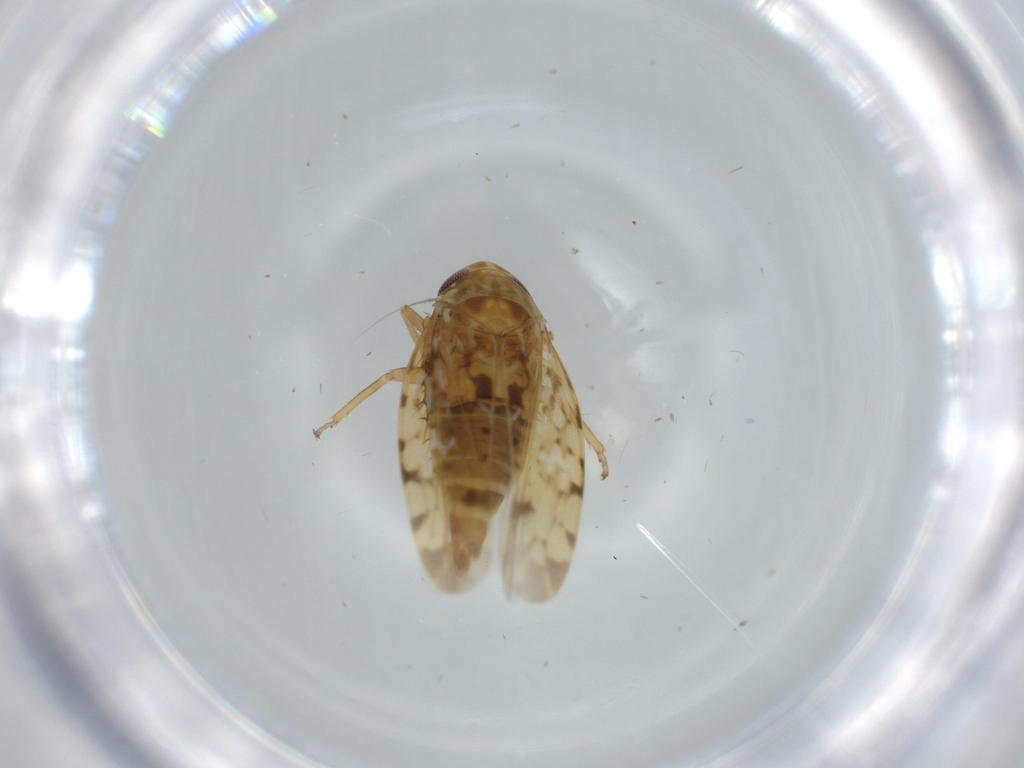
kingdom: Animalia
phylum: Arthropoda
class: Insecta
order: Hemiptera
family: Cicadellidae
